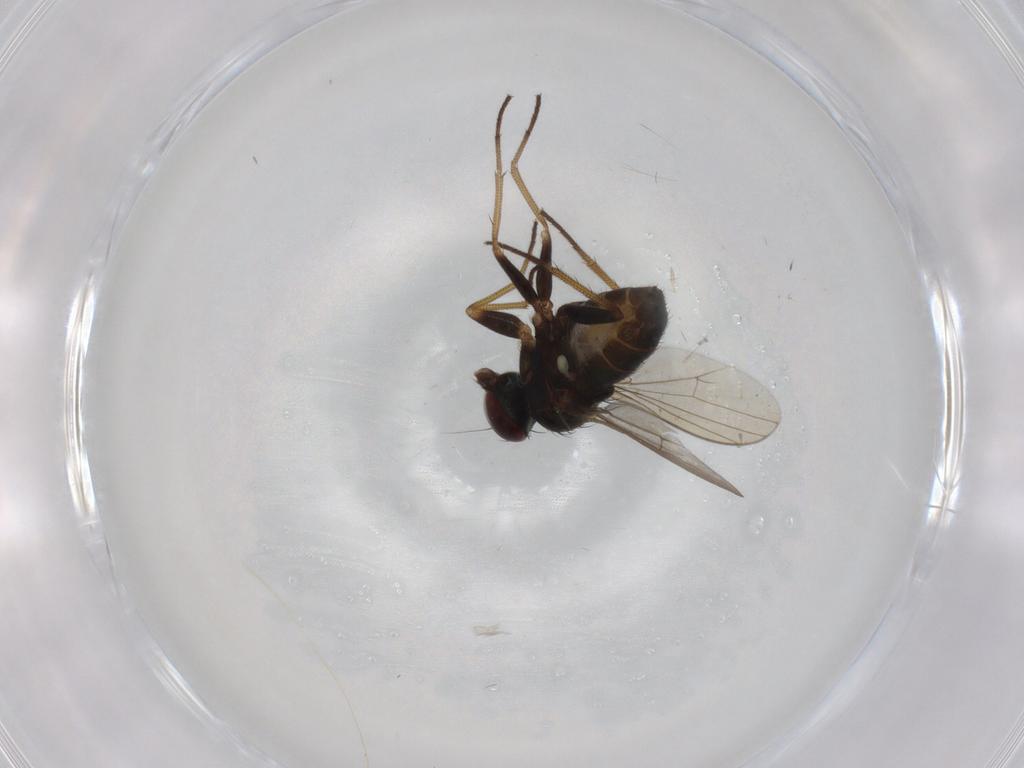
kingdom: Animalia
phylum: Arthropoda
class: Insecta
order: Diptera
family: Dolichopodidae
